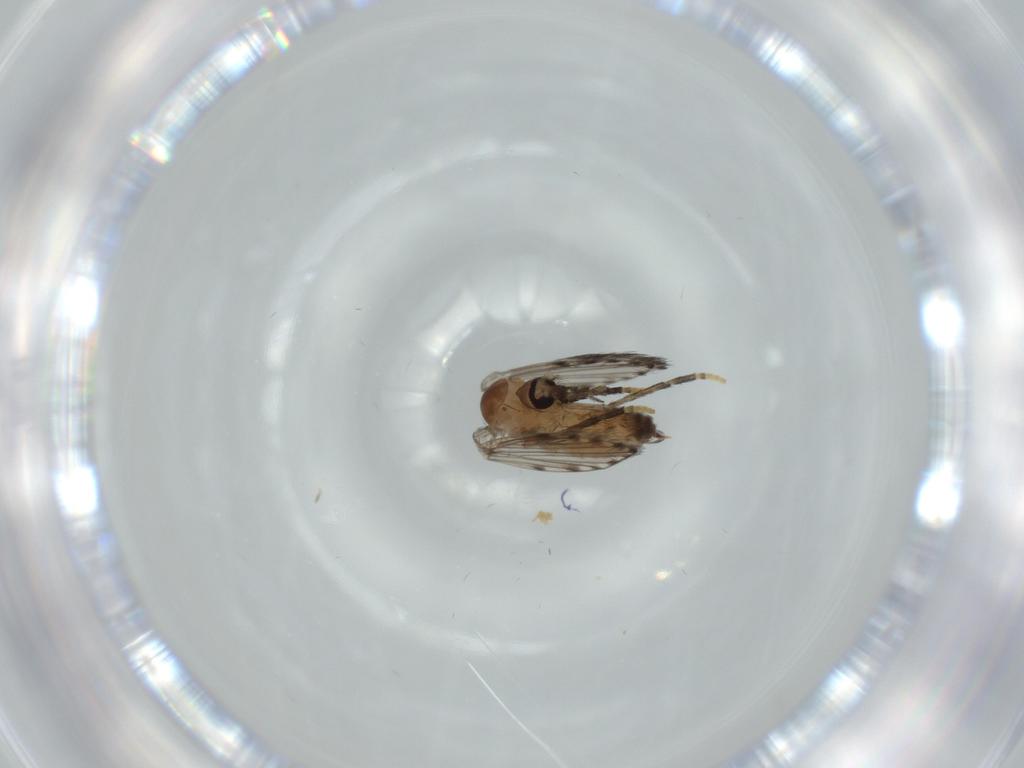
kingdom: Animalia
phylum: Arthropoda
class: Insecta
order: Diptera
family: Psychodidae
